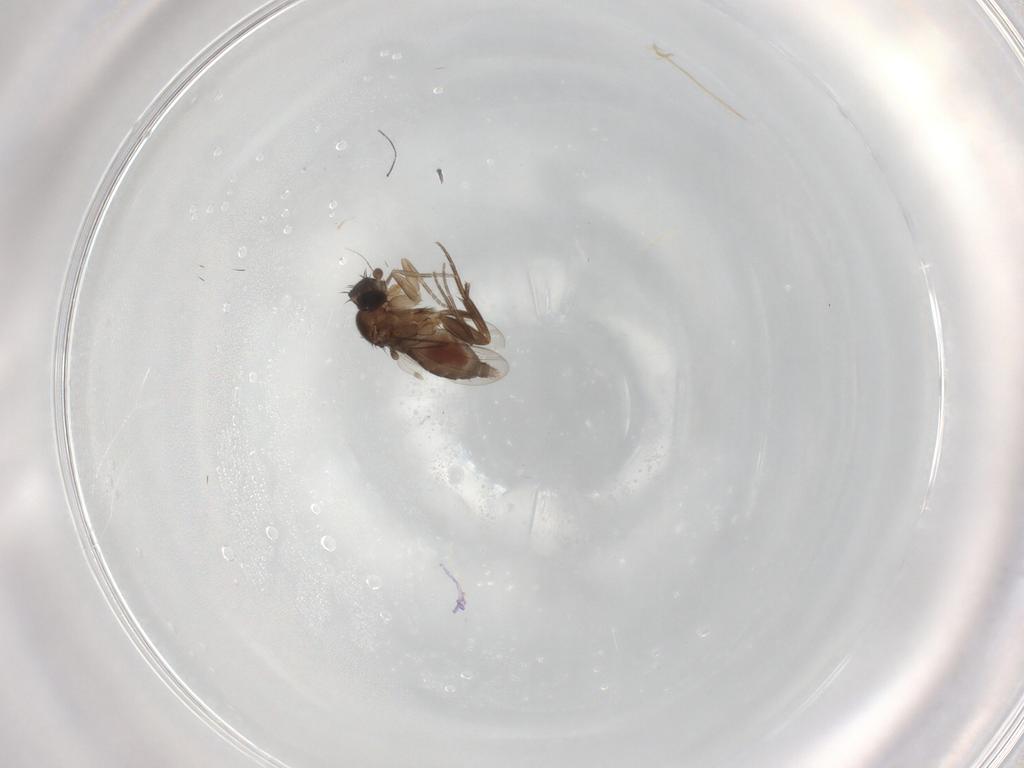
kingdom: Animalia
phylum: Arthropoda
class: Insecta
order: Diptera
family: Phoridae
